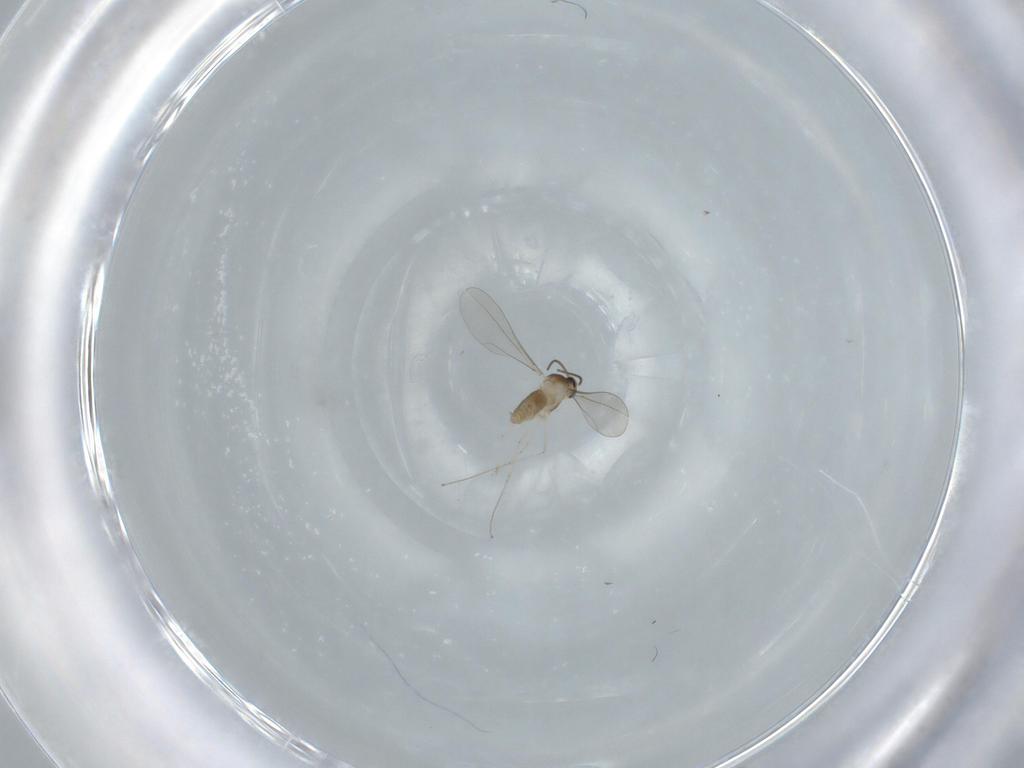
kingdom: Animalia
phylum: Arthropoda
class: Insecta
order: Diptera
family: Cecidomyiidae
